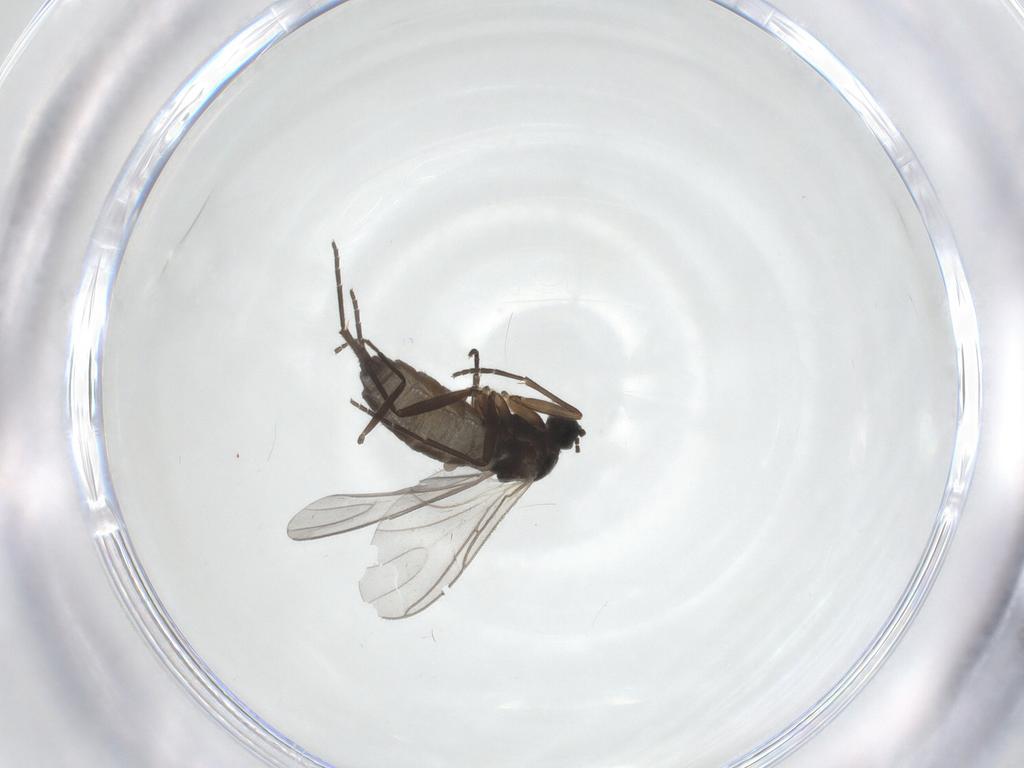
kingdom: Animalia
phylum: Arthropoda
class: Insecta
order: Diptera
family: Sciaridae
